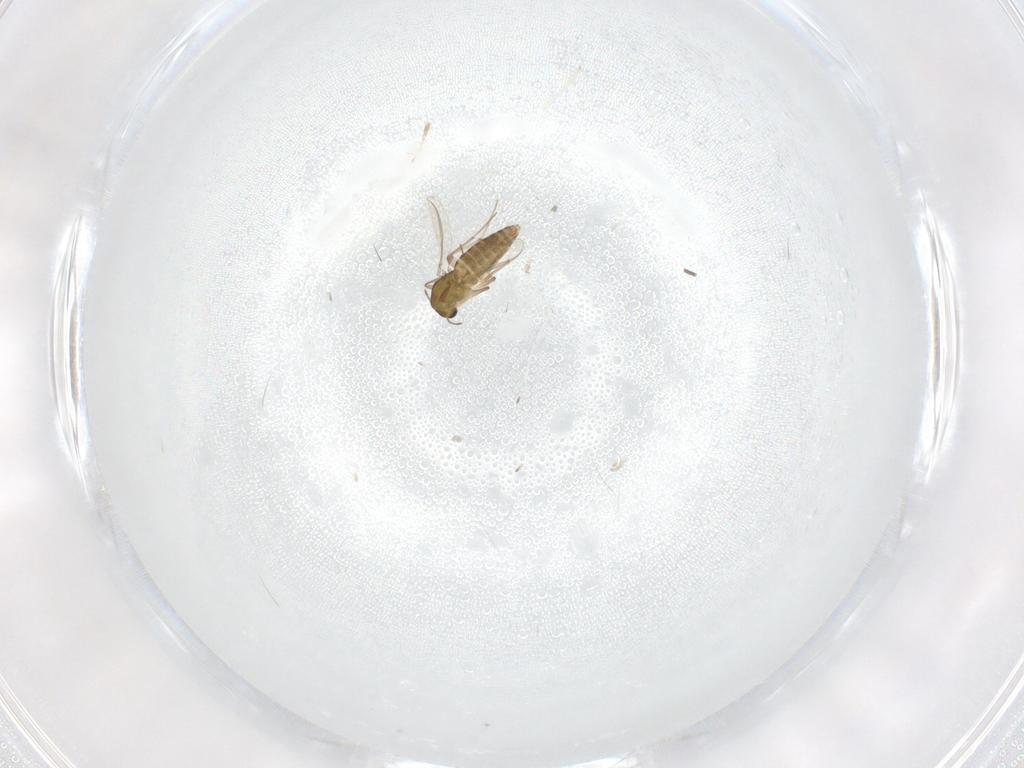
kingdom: Animalia
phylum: Arthropoda
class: Insecta
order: Diptera
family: Chironomidae
